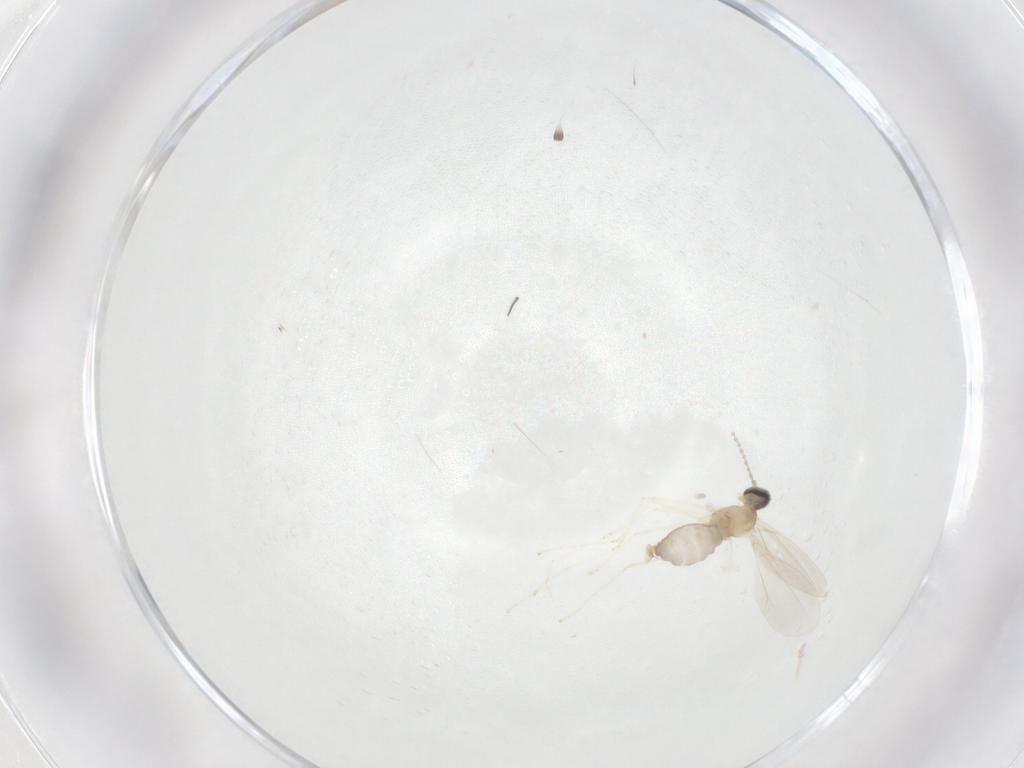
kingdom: Animalia
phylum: Arthropoda
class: Insecta
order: Diptera
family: Cecidomyiidae
